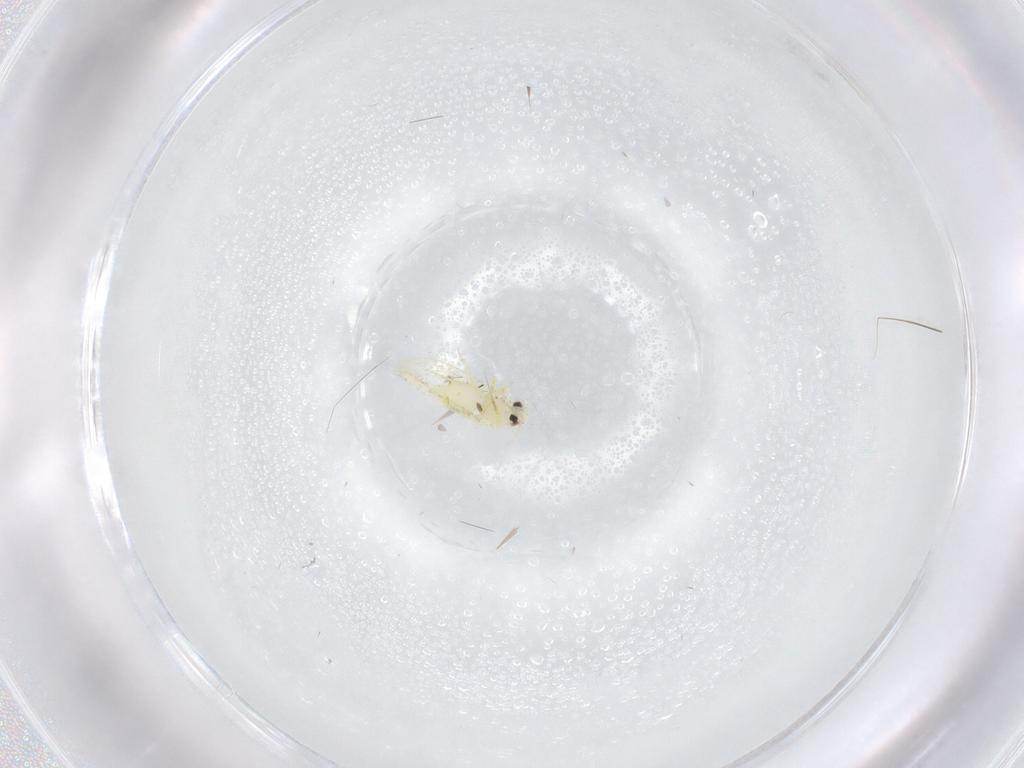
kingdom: Animalia
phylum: Arthropoda
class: Insecta
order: Hemiptera
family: Aleyrodidae
